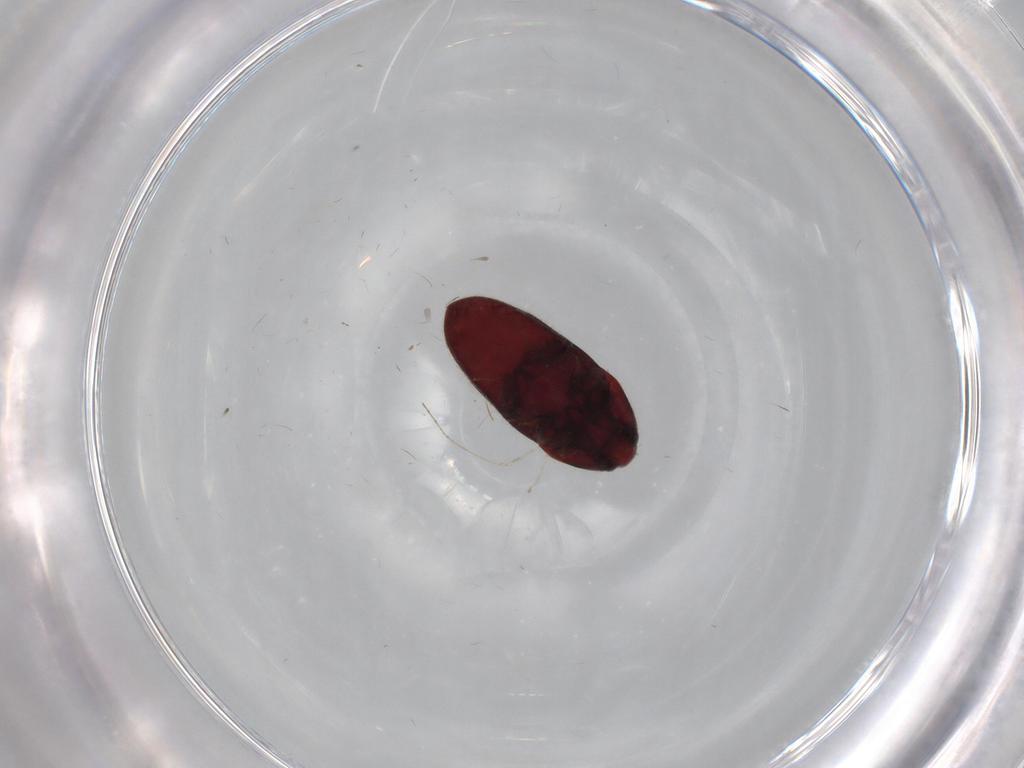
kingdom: Animalia
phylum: Arthropoda
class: Insecta
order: Coleoptera
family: Throscidae
